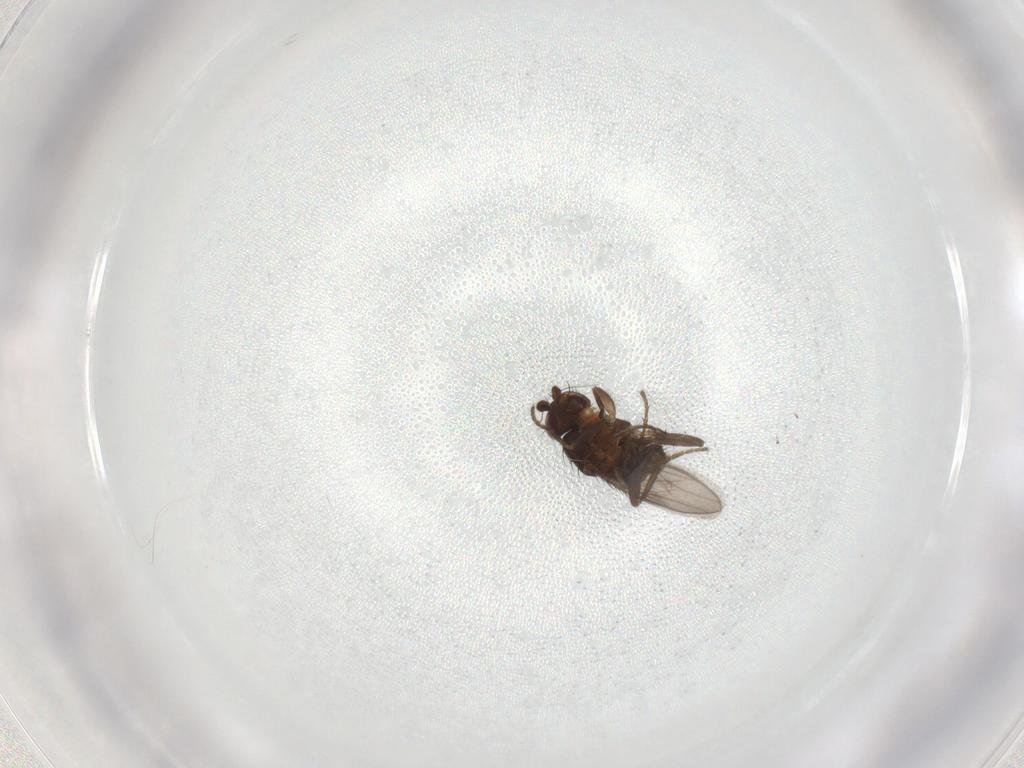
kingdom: Animalia
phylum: Arthropoda
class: Insecta
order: Diptera
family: Sphaeroceridae
